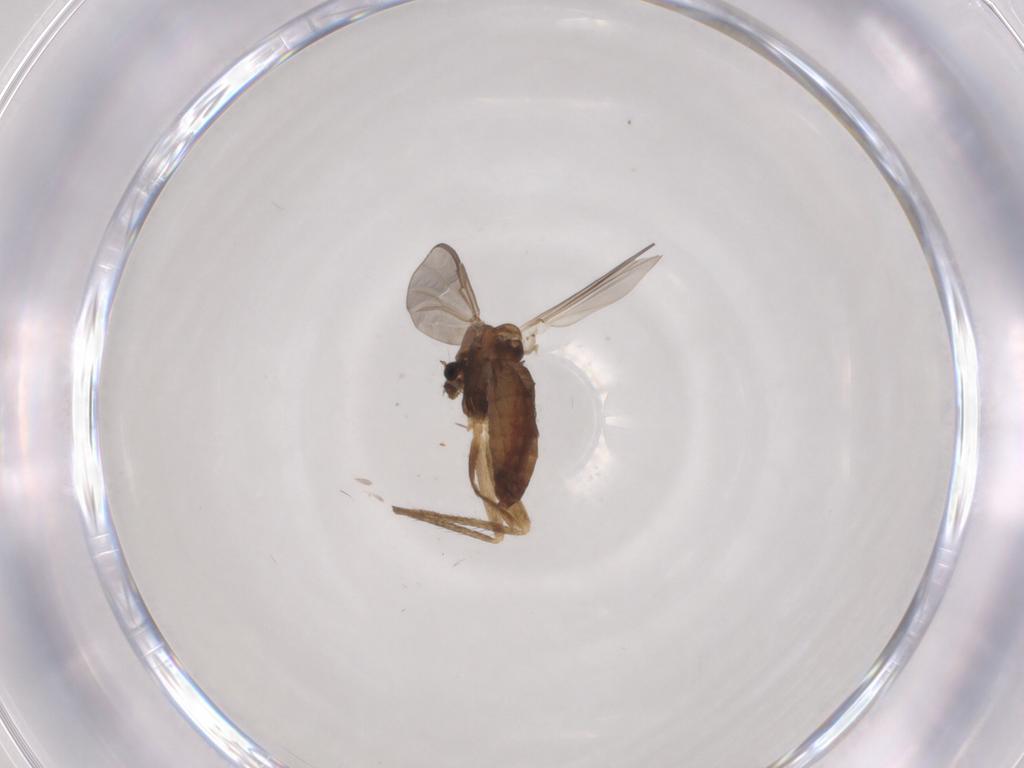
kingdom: Animalia
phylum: Arthropoda
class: Insecta
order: Diptera
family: Chironomidae
